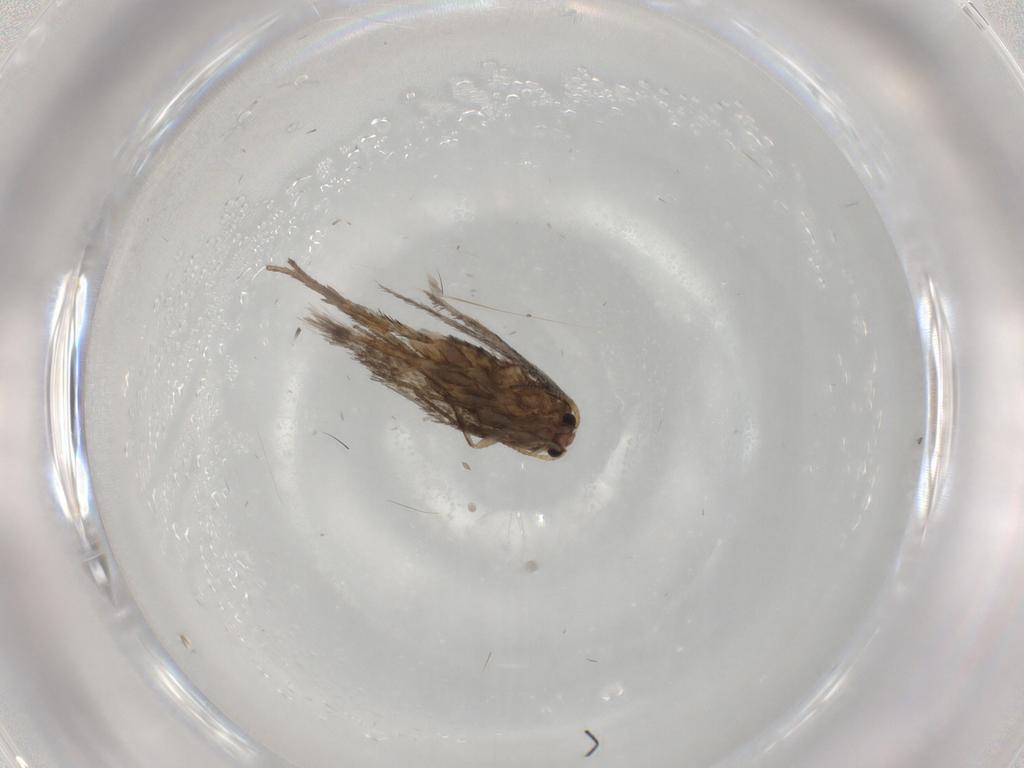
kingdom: Animalia
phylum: Arthropoda
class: Insecta
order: Lepidoptera
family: Nepticulidae
